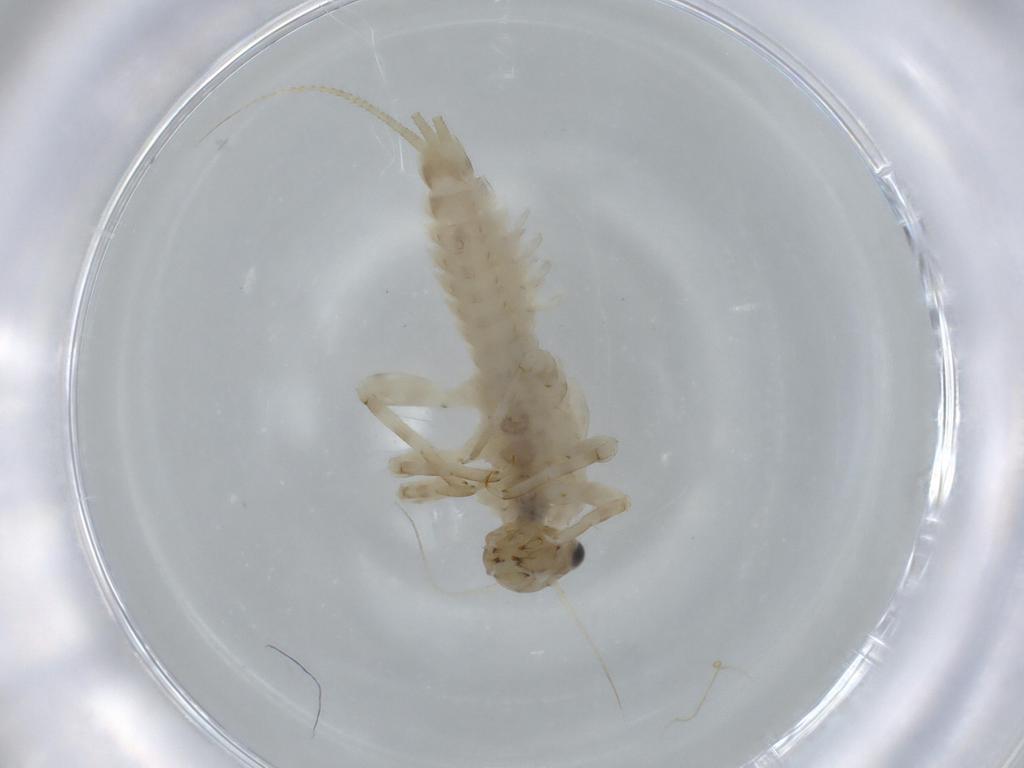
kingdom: Animalia
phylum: Arthropoda
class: Insecta
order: Ephemeroptera
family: Ephemerellidae
